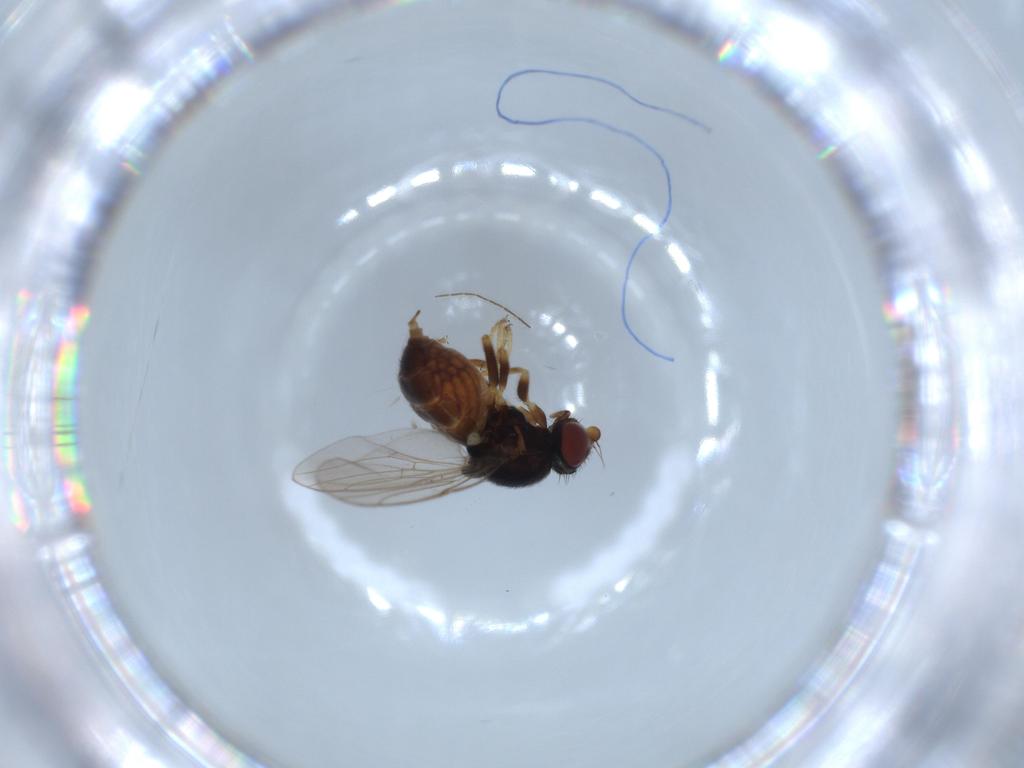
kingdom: Animalia
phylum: Arthropoda
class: Insecta
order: Diptera
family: Chloropidae
